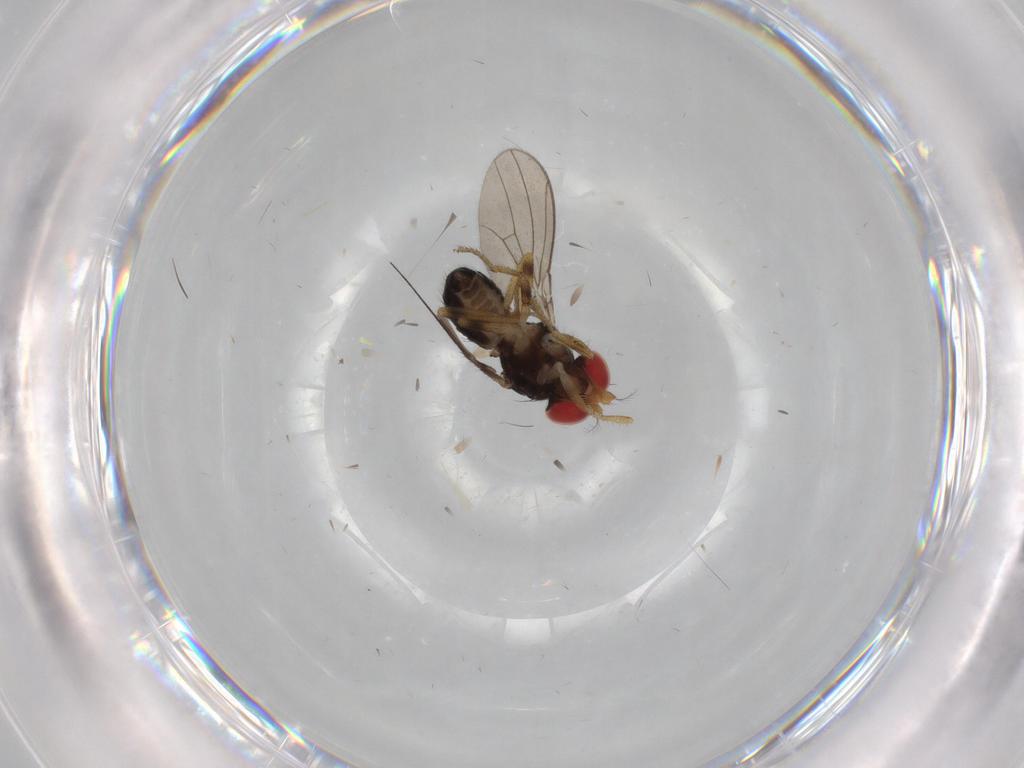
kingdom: Animalia
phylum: Arthropoda
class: Insecta
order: Diptera
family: Drosophilidae
